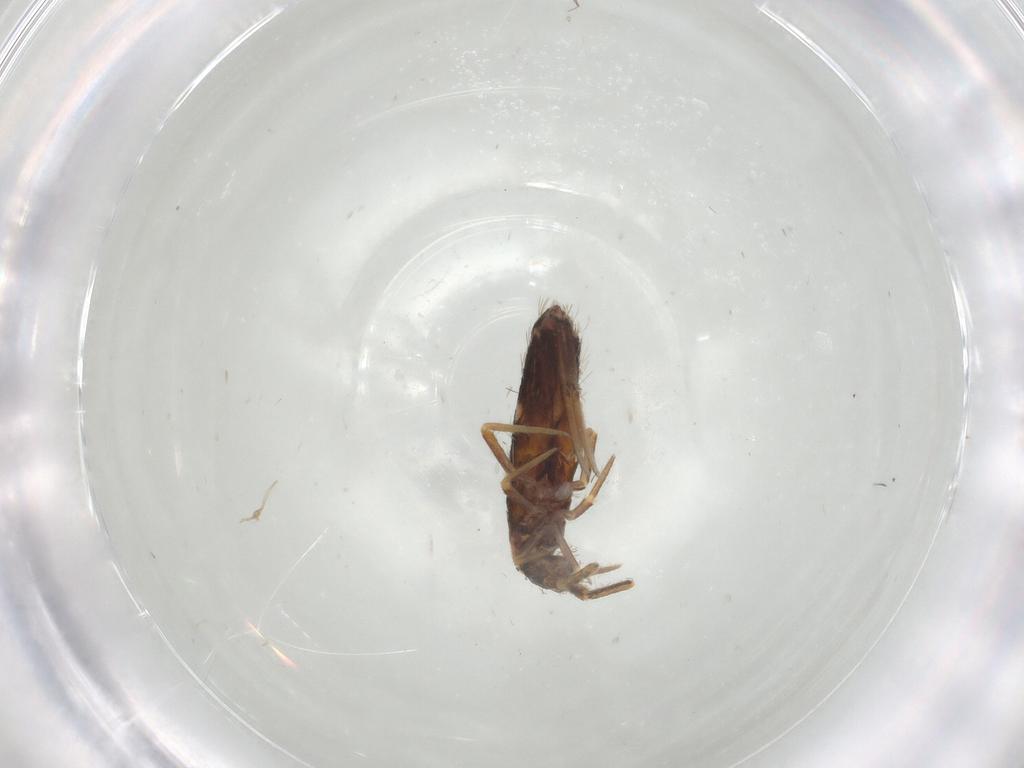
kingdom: Animalia
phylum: Arthropoda
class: Collembola
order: Entomobryomorpha
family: Entomobryidae
